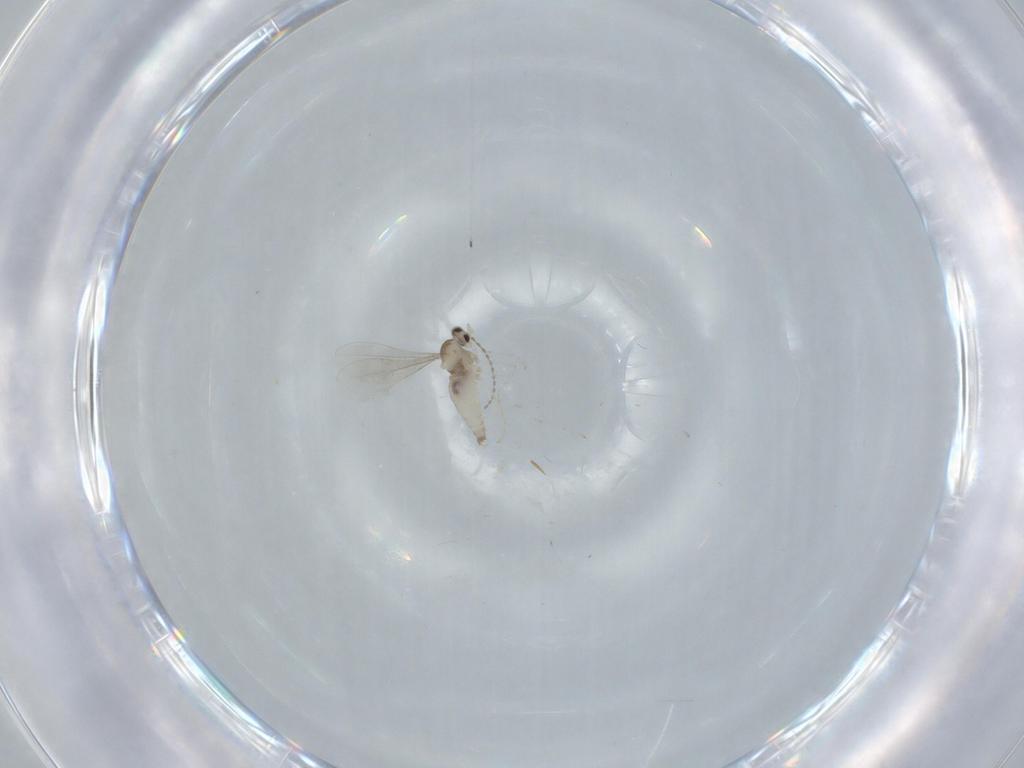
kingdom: Animalia
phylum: Arthropoda
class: Insecta
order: Diptera
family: Cecidomyiidae
